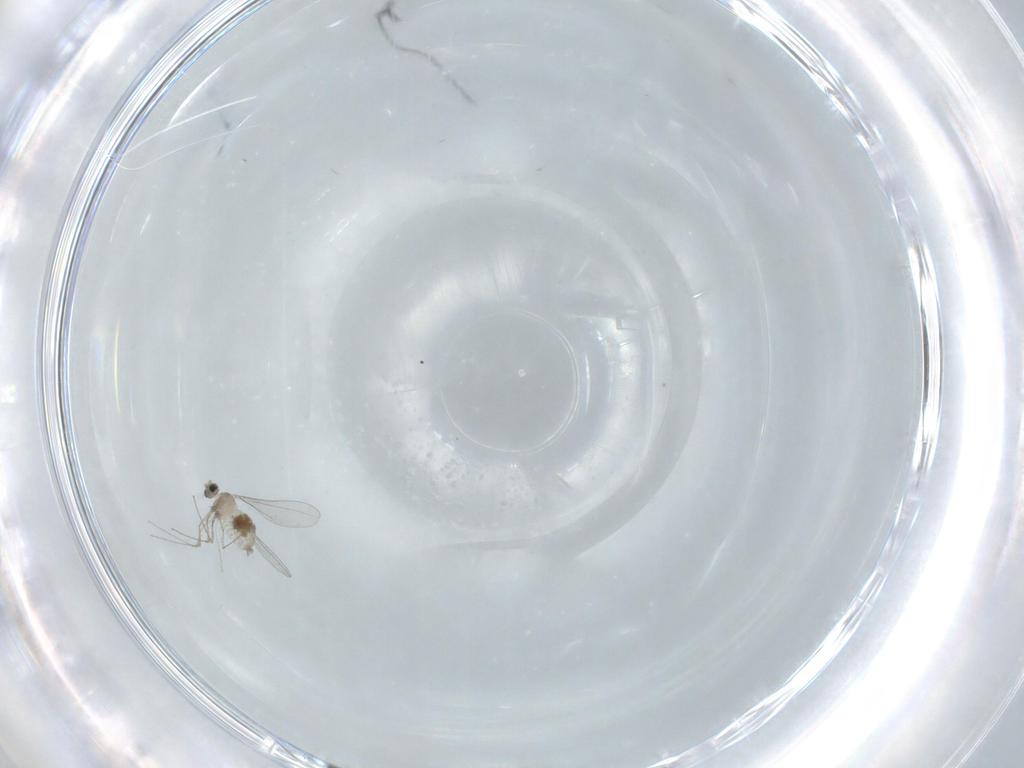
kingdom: Animalia
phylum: Arthropoda
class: Insecta
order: Diptera
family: Cecidomyiidae
